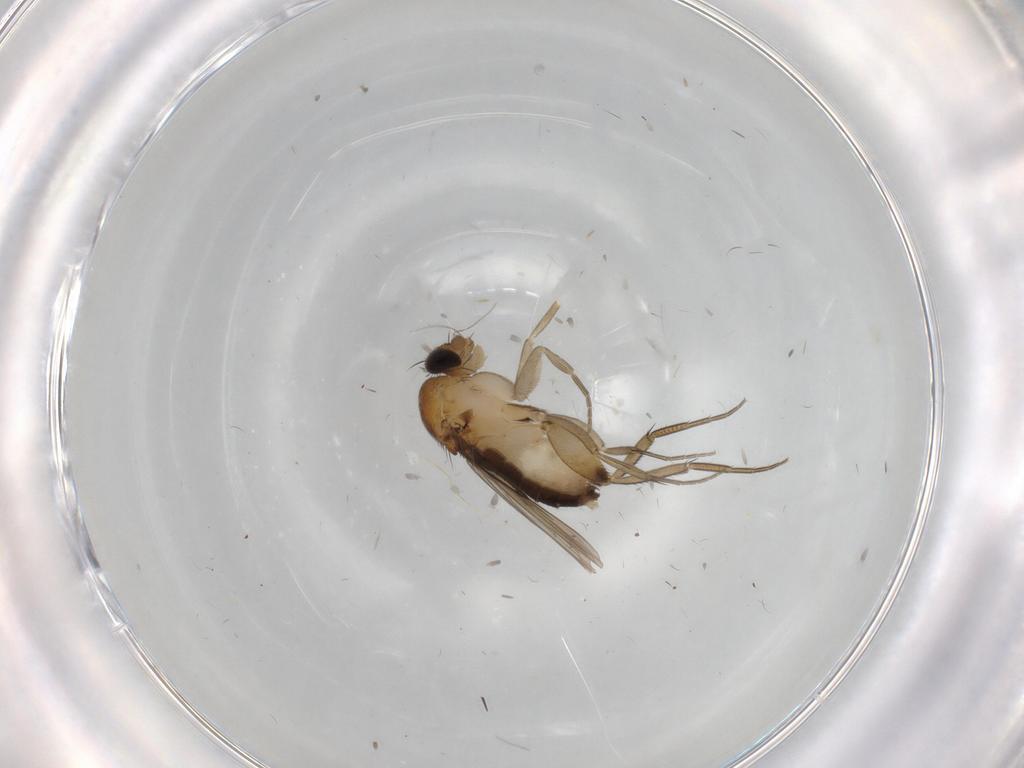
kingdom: Animalia
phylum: Arthropoda
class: Insecta
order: Diptera
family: Phoridae
